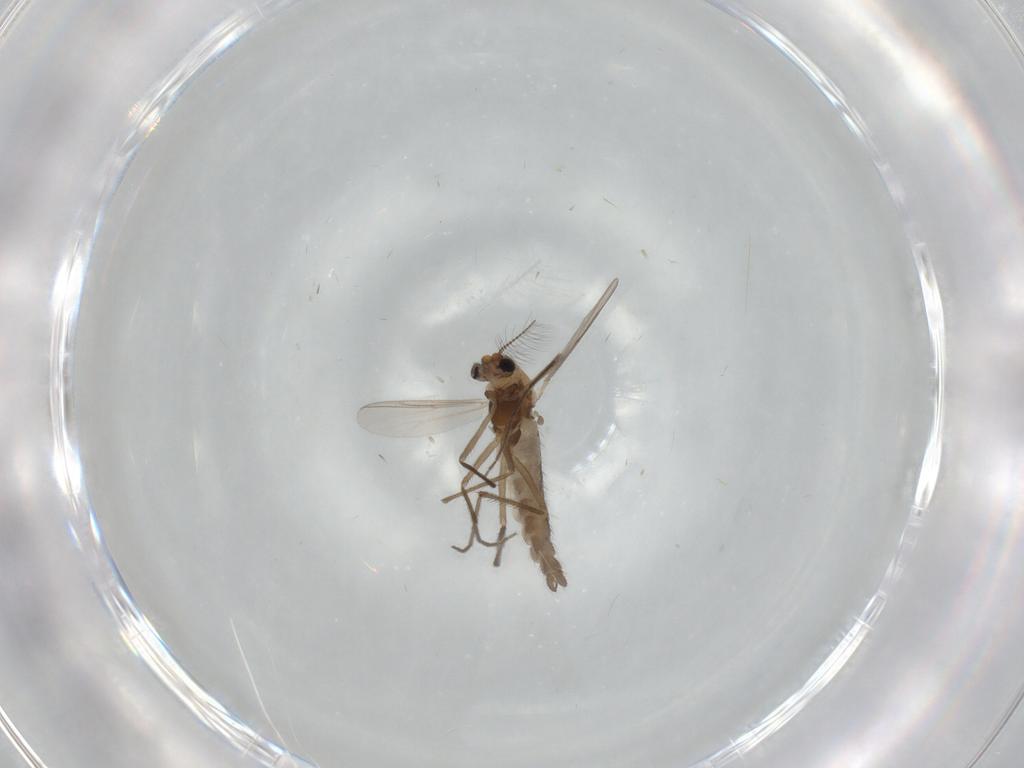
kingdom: Animalia
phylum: Arthropoda
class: Insecta
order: Diptera
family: Chironomidae
